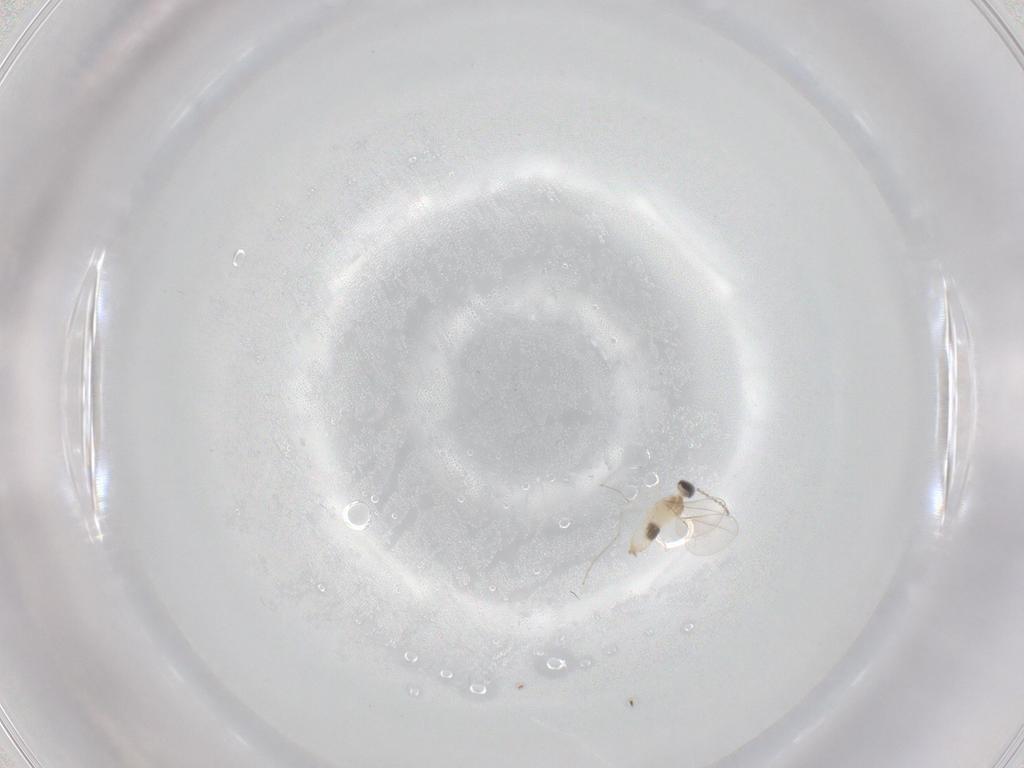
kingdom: Animalia
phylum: Arthropoda
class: Insecta
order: Diptera
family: Cecidomyiidae
